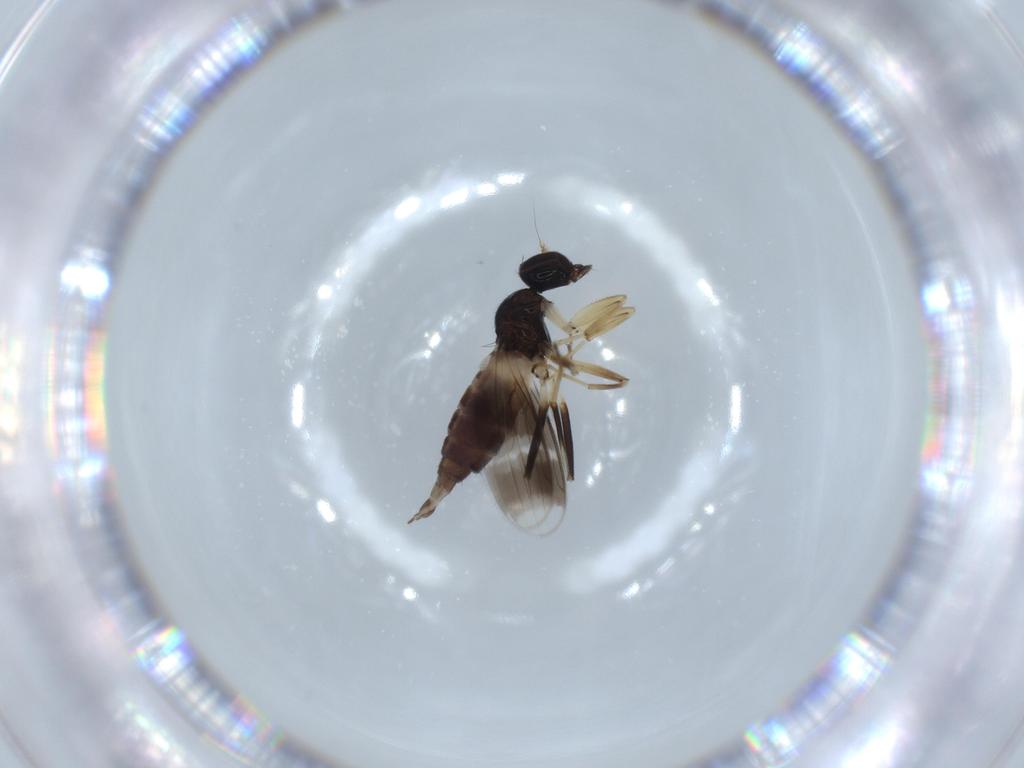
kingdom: Animalia
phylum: Arthropoda
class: Insecta
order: Diptera
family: Hybotidae
